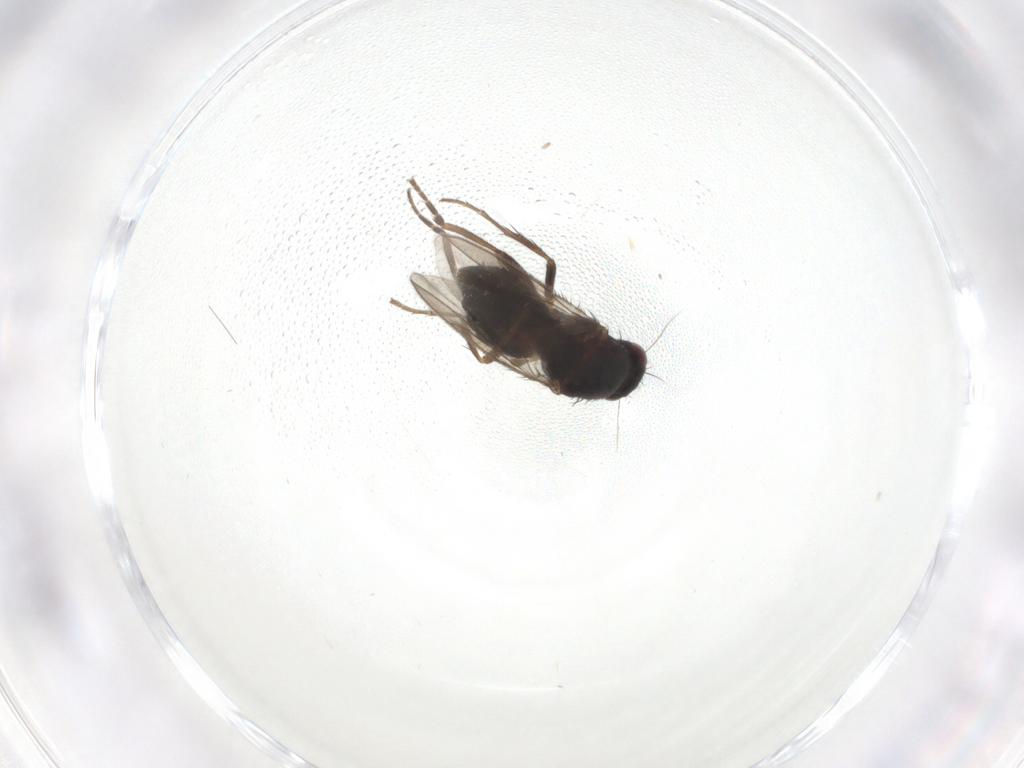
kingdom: Animalia
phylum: Arthropoda
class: Insecta
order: Diptera
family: Sphaeroceridae
